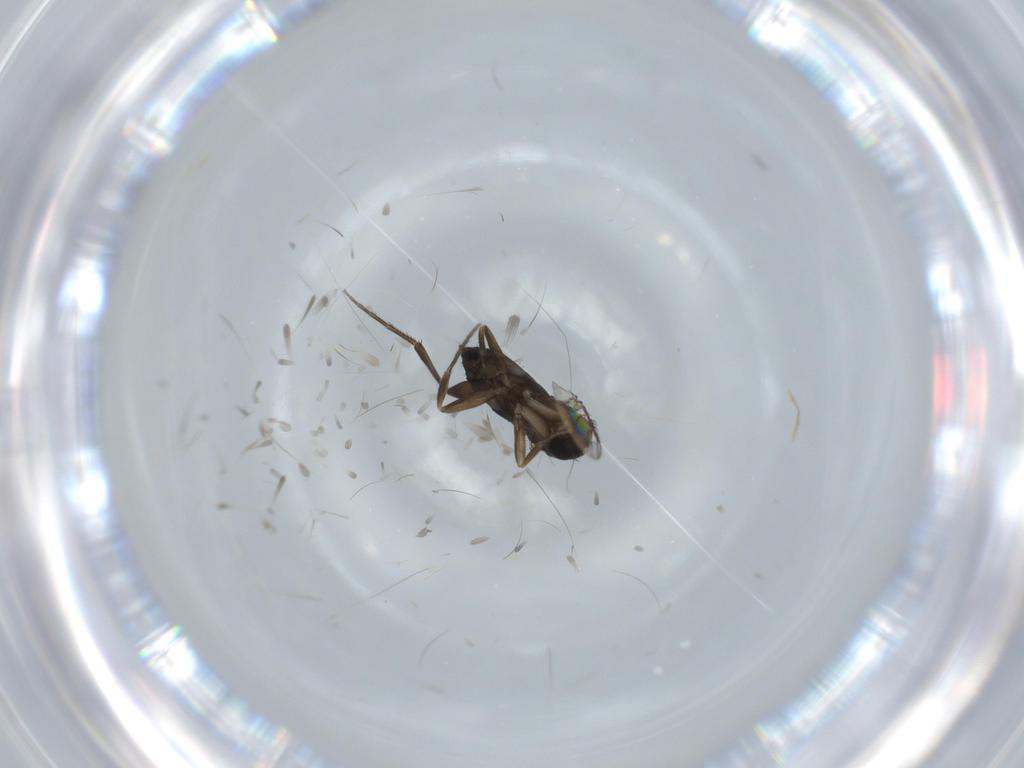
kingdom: Animalia
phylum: Arthropoda
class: Insecta
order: Diptera
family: Phoridae
